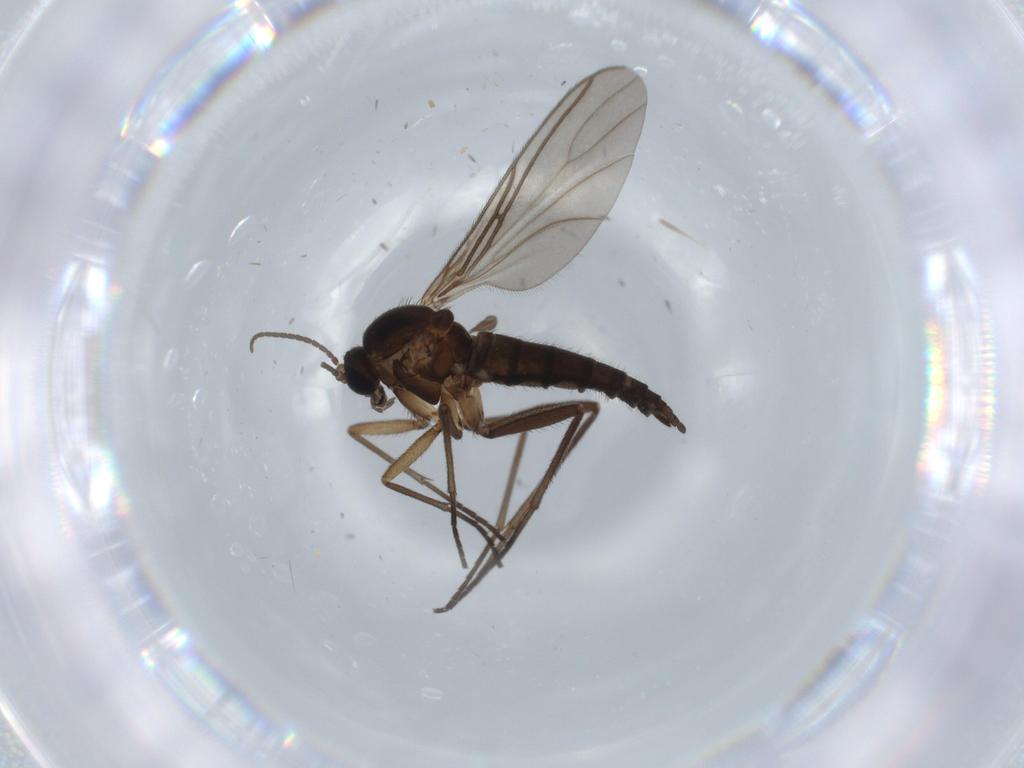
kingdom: Animalia
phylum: Arthropoda
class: Insecta
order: Diptera
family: Sciaridae
